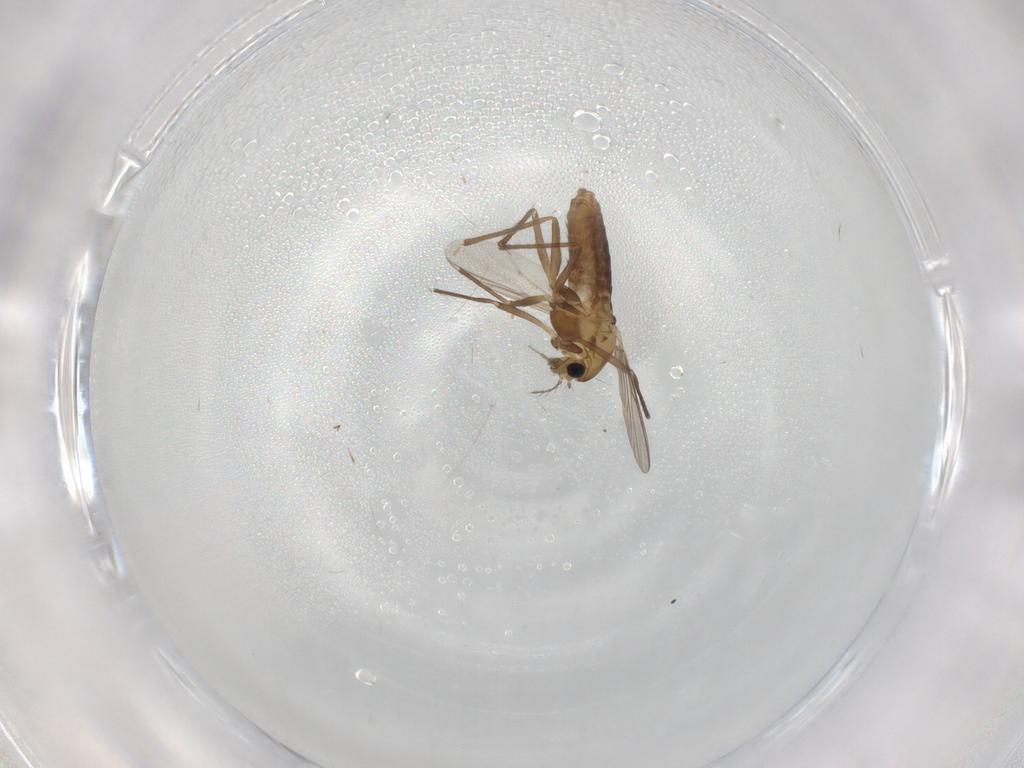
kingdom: Animalia
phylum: Arthropoda
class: Insecta
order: Diptera
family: Chironomidae
